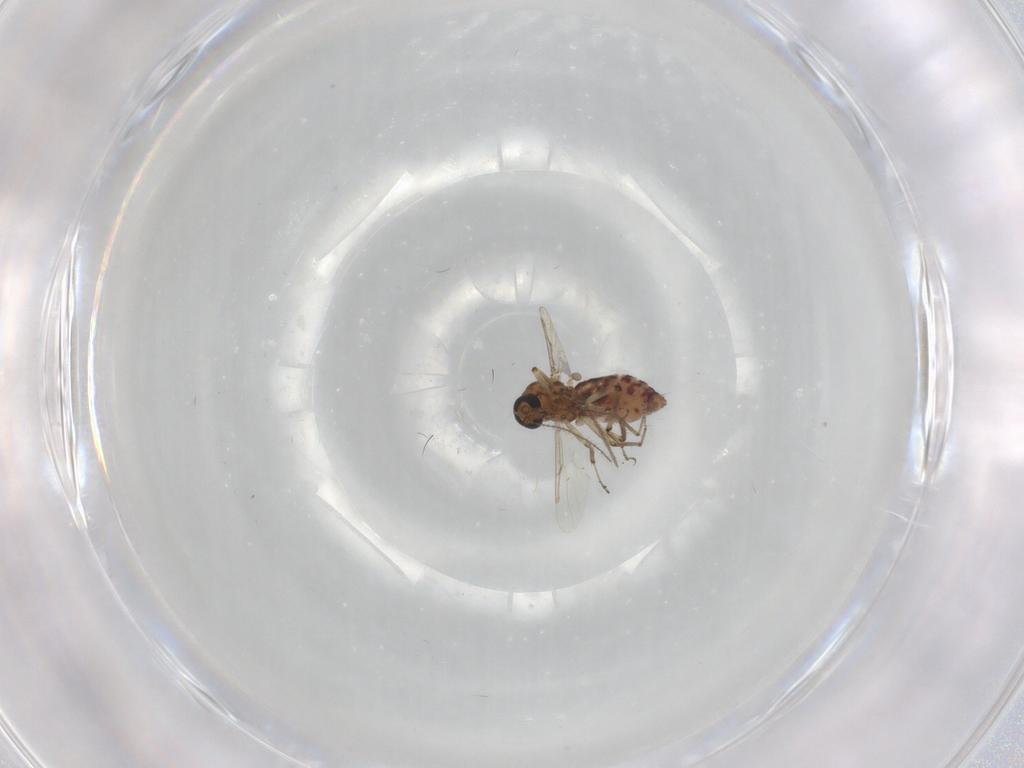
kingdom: Animalia
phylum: Arthropoda
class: Insecta
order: Diptera
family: Ceratopogonidae
